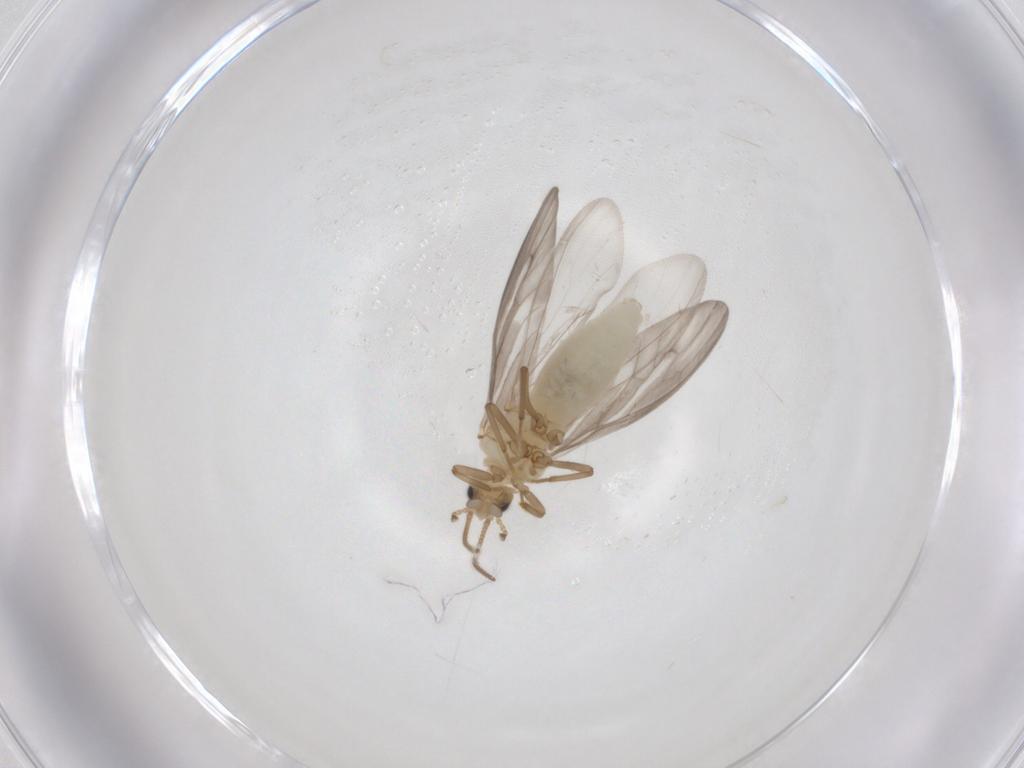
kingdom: Animalia
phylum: Arthropoda
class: Insecta
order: Neuroptera
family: Coniopterygidae
